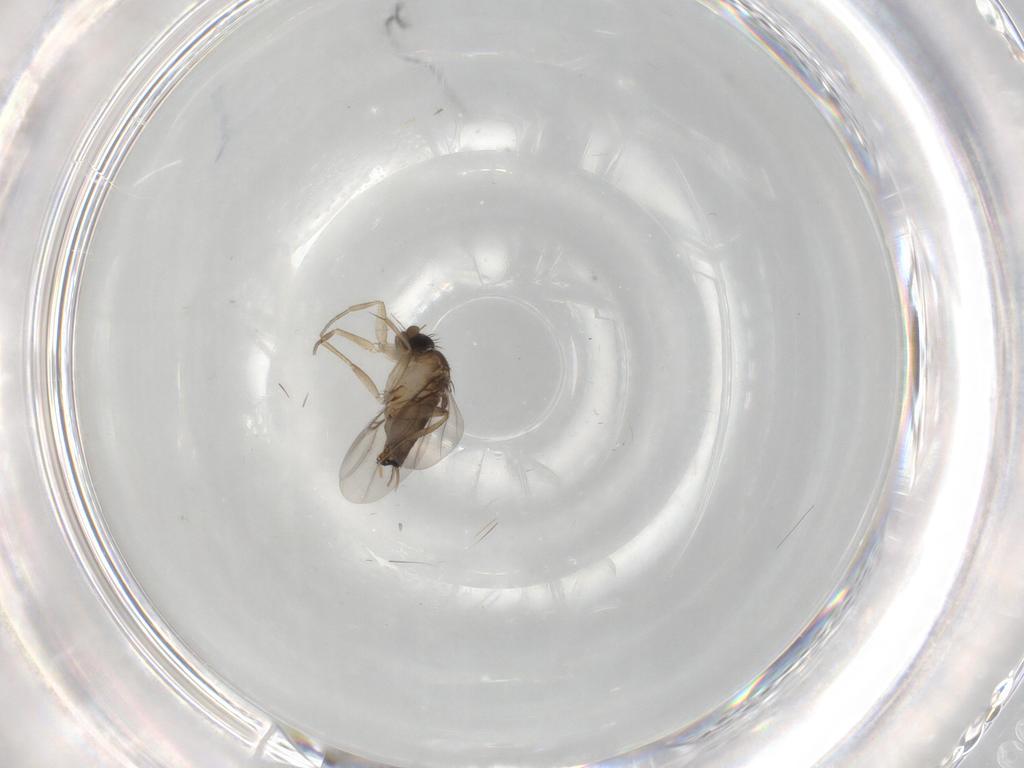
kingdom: Animalia
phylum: Arthropoda
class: Insecta
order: Diptera
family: Phoridae
